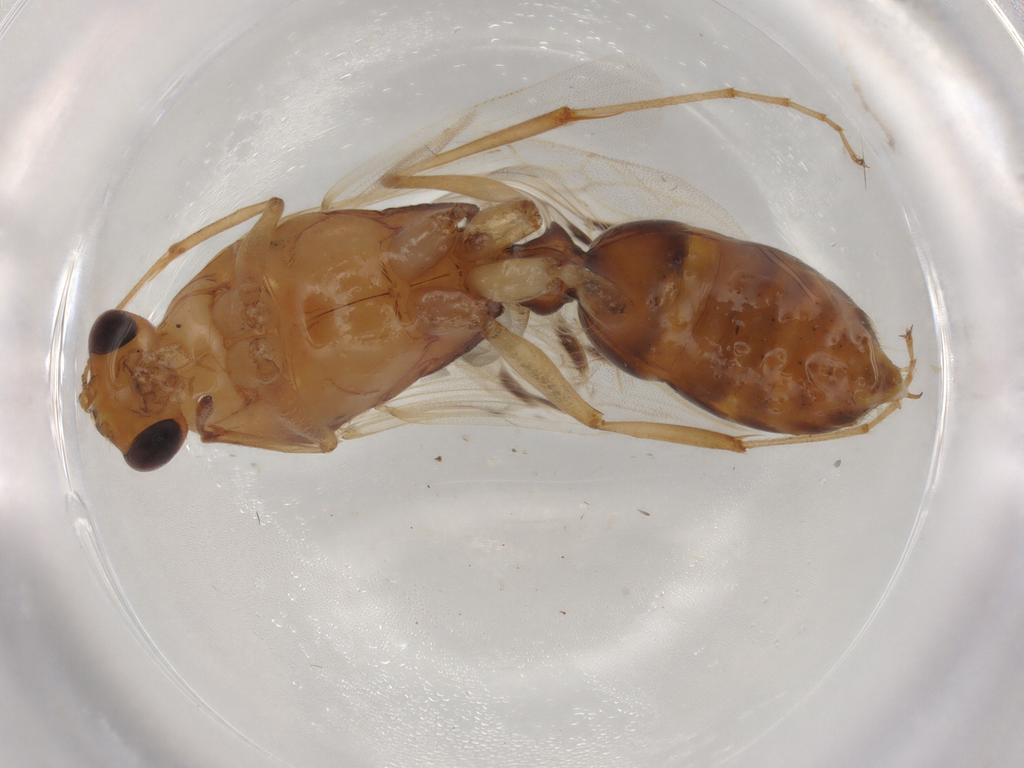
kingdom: Animalia
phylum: Arthropoda
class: Insecta
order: Hymenoptera
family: Formicidae
